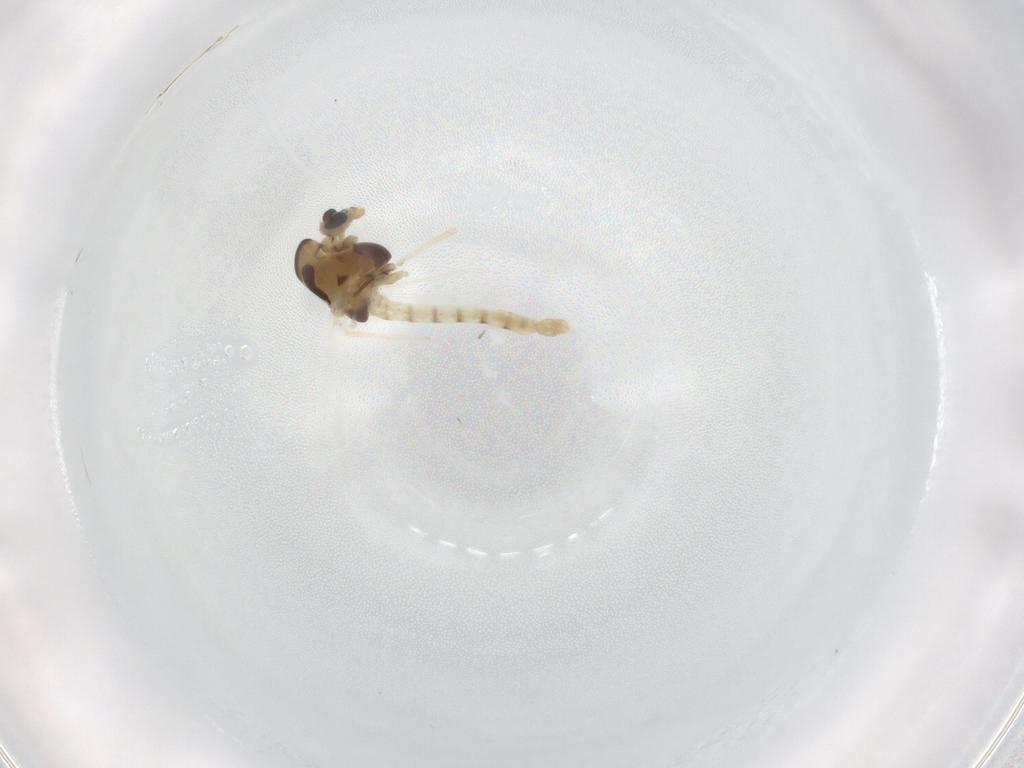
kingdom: Animalia
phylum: Arthropoda
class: Insecta
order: Diptera
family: Chironomidae
